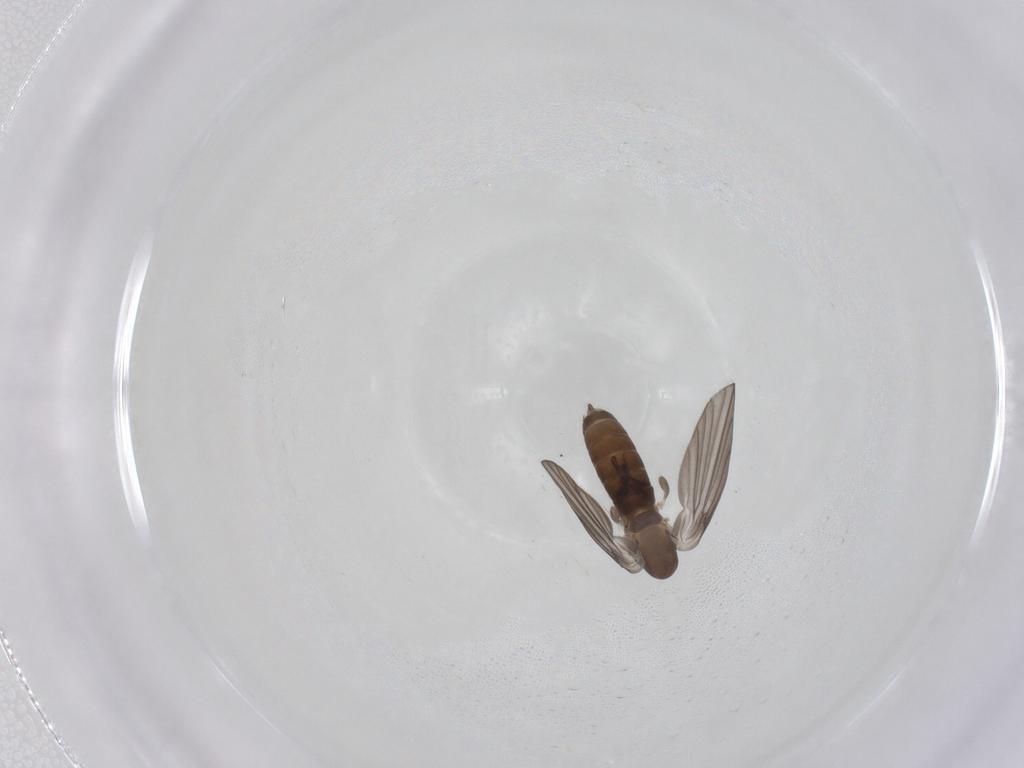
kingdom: Animalia
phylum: Arthropoda
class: Insecta
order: Diptera
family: Psychodidae
